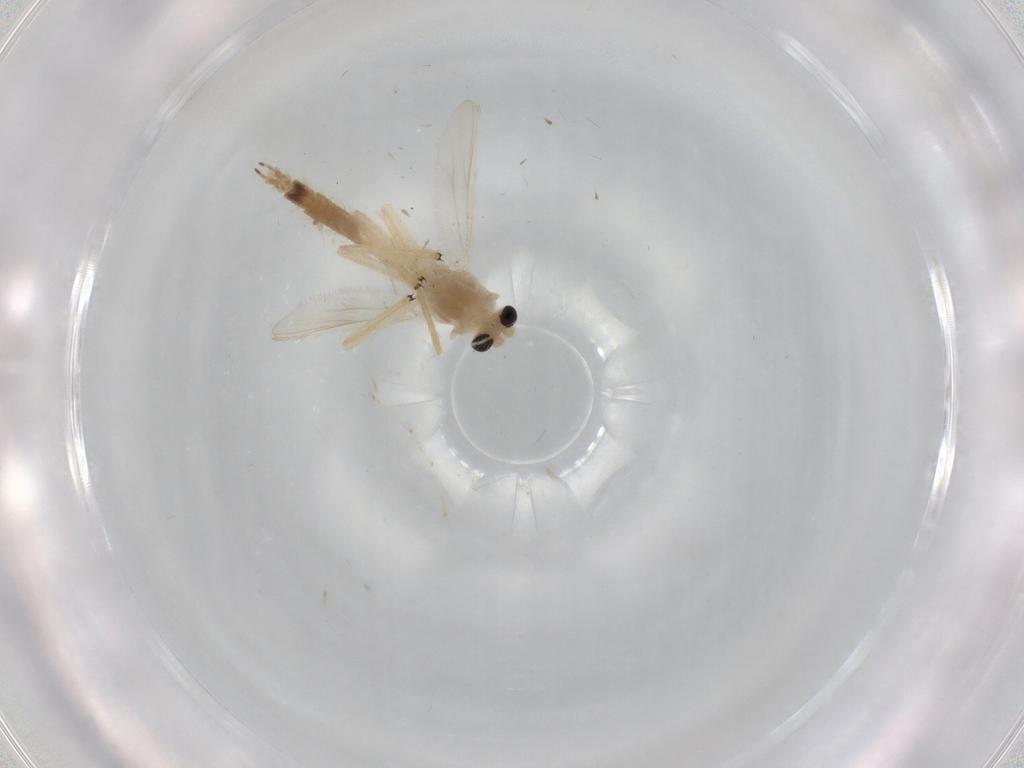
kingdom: Animalia
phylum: Arthropoda
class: Insecta
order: Diptera
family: Chironomidae
